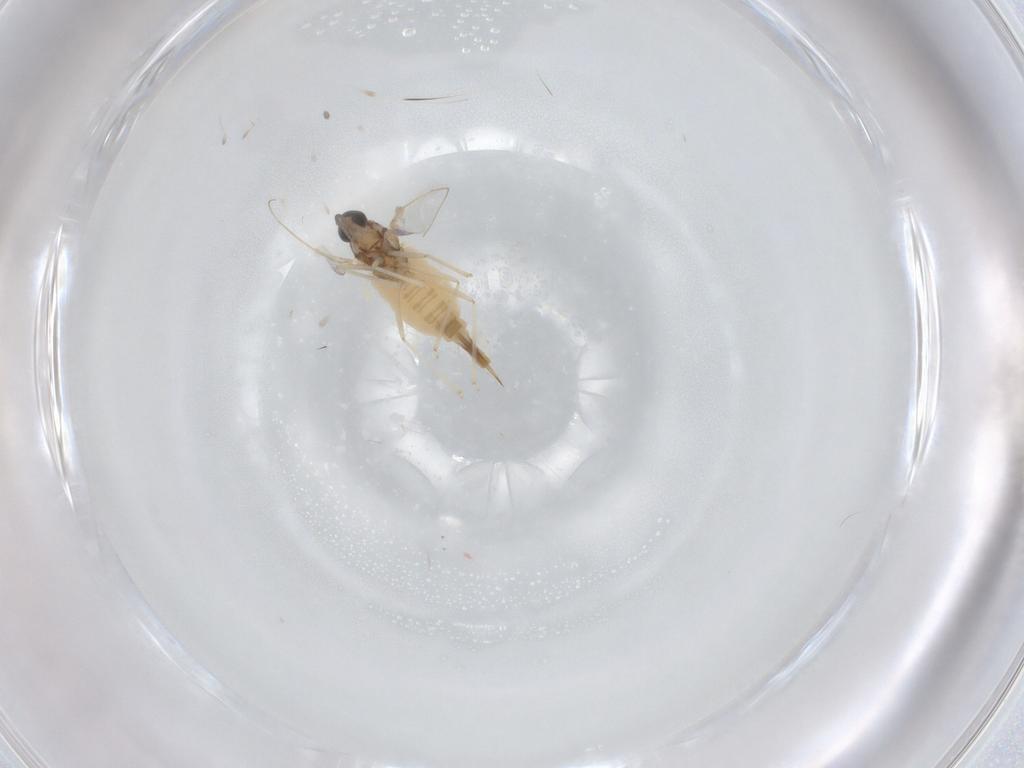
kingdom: Animalia
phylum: Arthropoda
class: Insecta
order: Diptera
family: Cecidomyiidae
